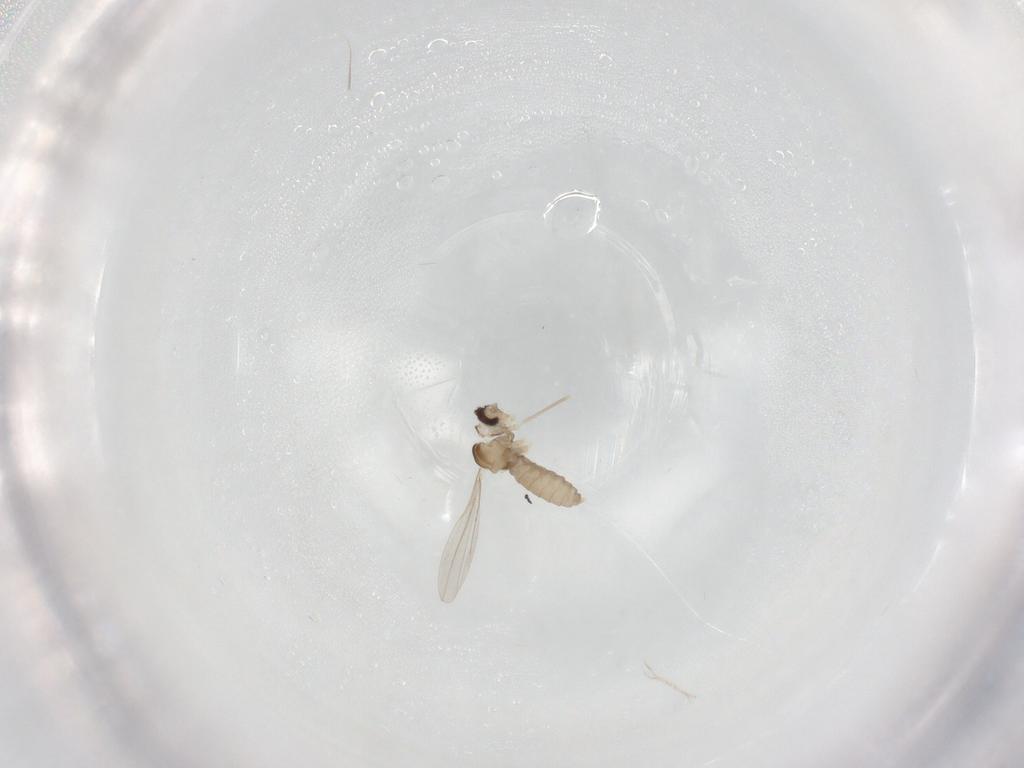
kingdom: Animalia
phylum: Arthropoda
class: Insecta
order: Diptera
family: Cecidomyiidae
